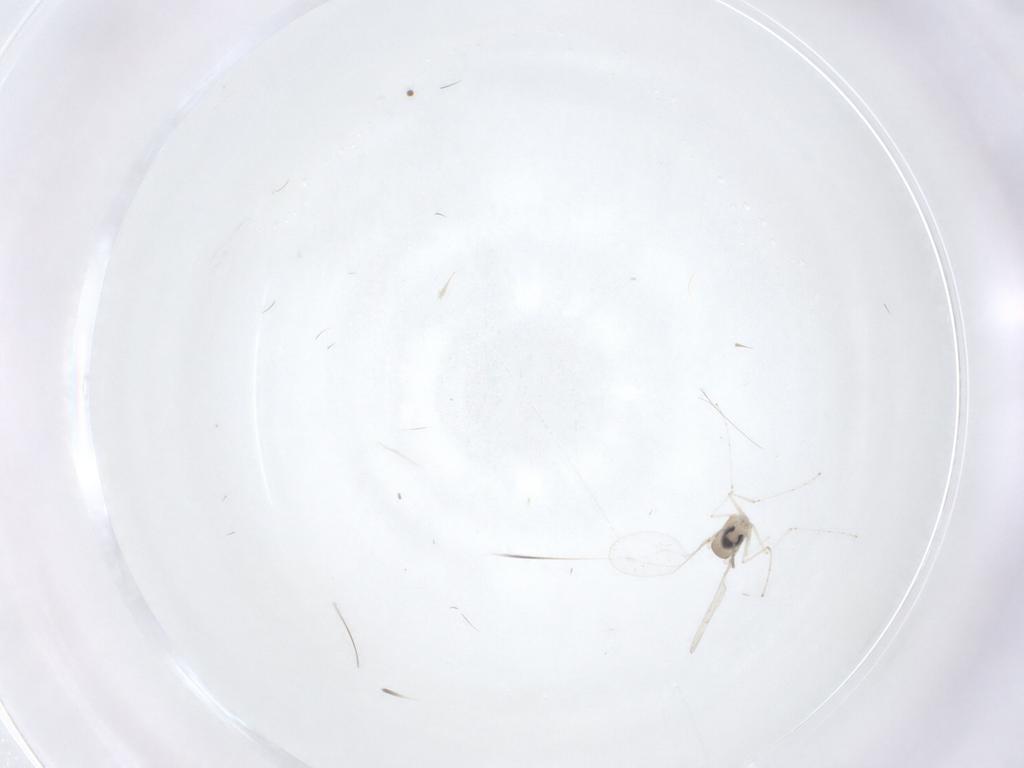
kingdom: Animalia
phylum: Arthropoda
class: Insecta
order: Diptera
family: Cecidomyiidae
